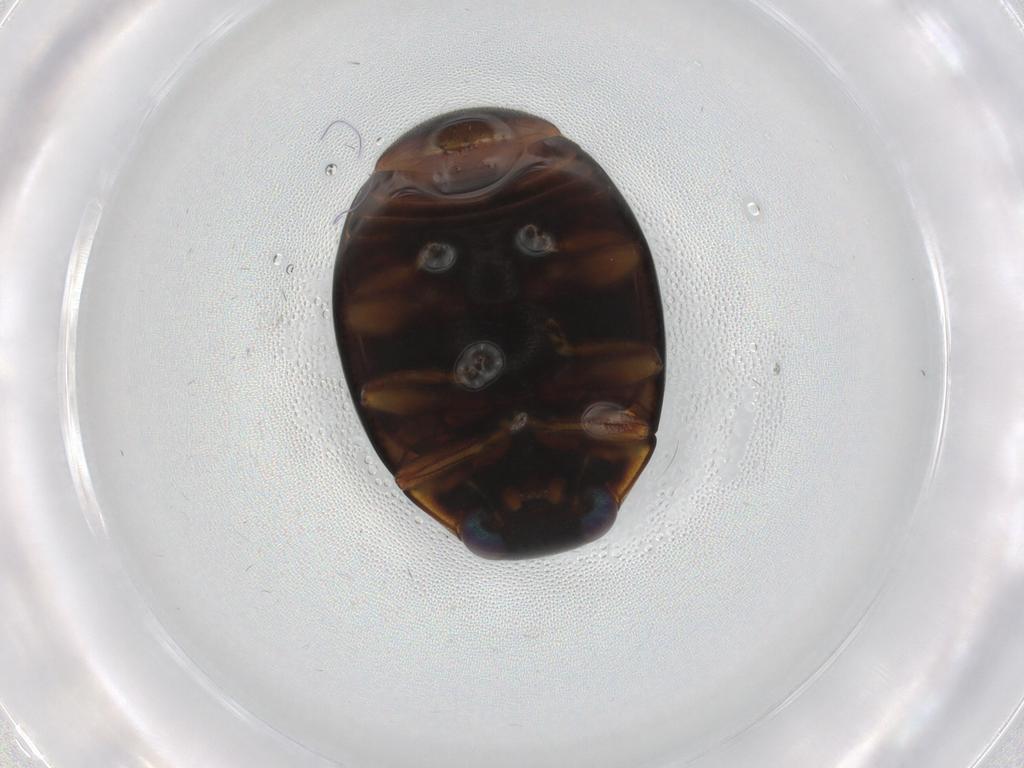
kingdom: Animalia
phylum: Arthropoda
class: Insecta
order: Coleoptera
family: Coccinellidae
